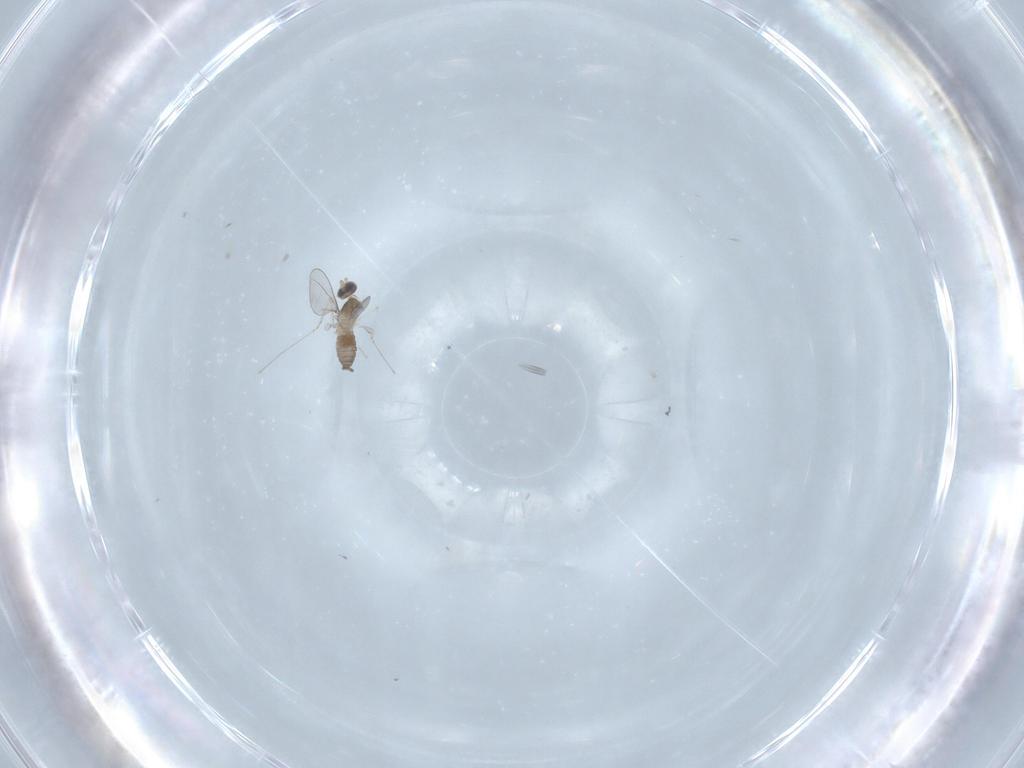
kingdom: Animalia
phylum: Arthropoda
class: Insecta
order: Diptera
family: Cecidomyiidae
